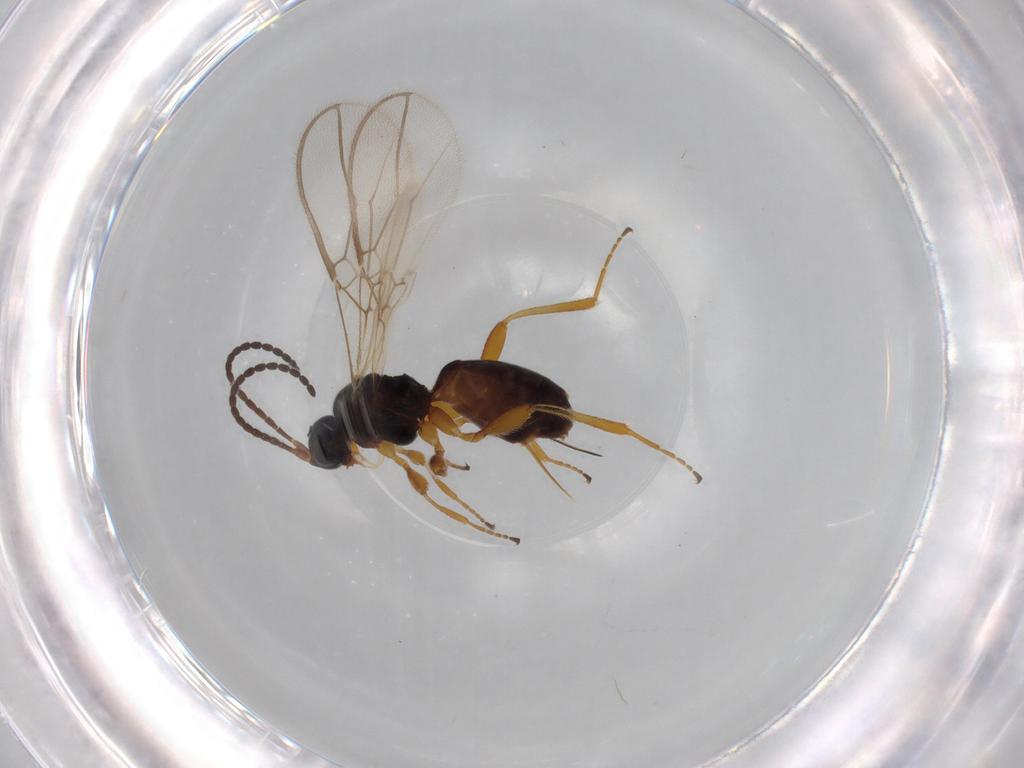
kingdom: Animalia
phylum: Arthropoda
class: Insecta
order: Hymenoptera
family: Braconidae
